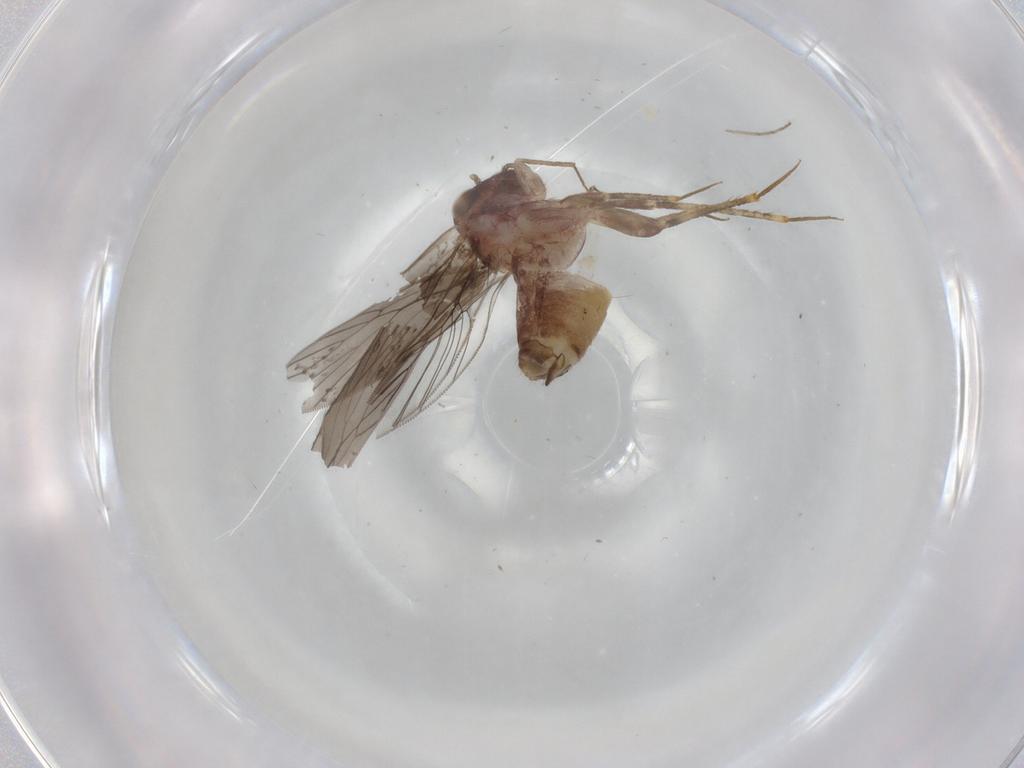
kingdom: Animalia
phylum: Arthropoda
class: Insecta
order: Psocodea
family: Lepidopsocidae
